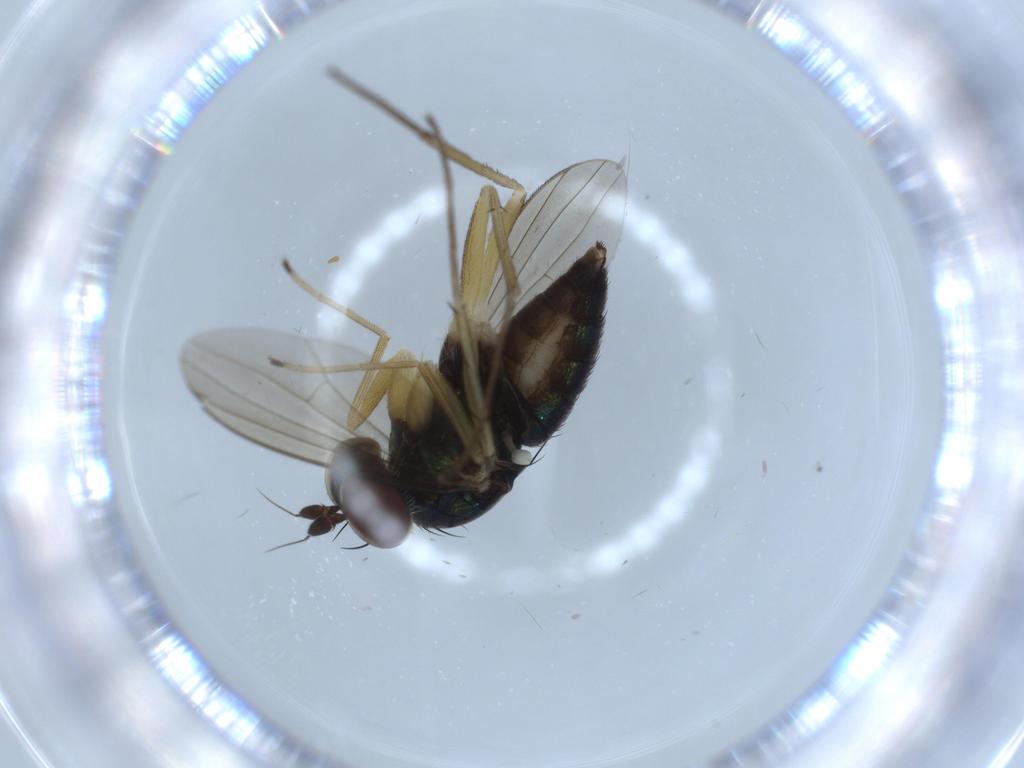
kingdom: Animalia
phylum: Arthropoda
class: Insecta
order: Diptera
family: Dolichopodidae
